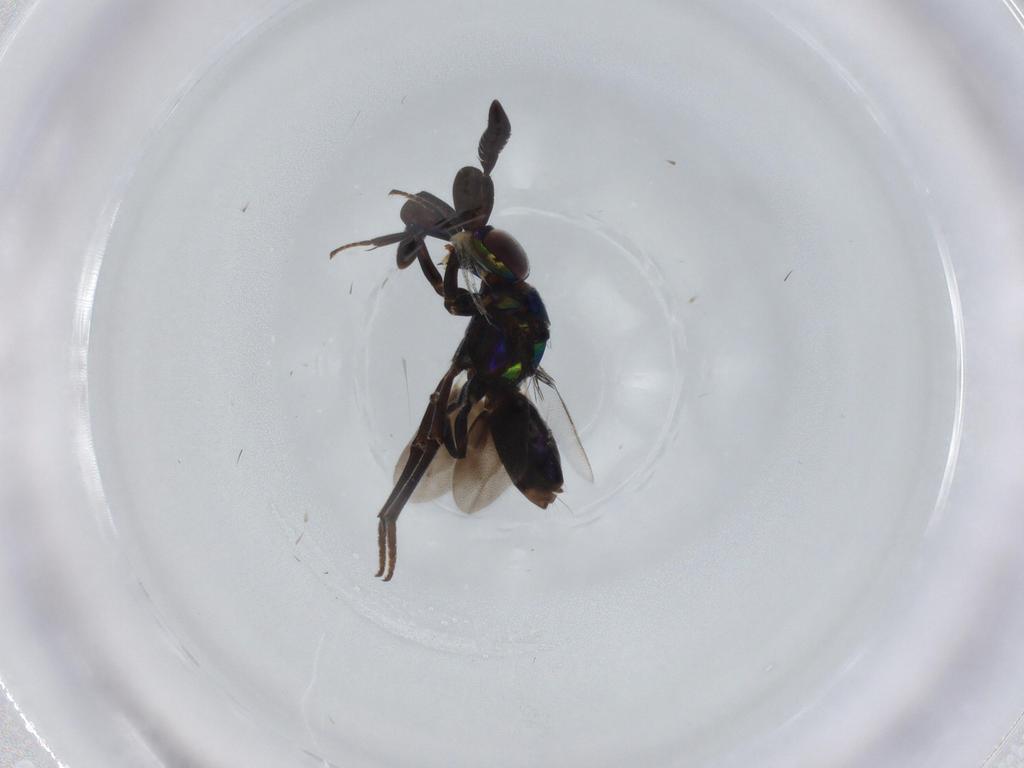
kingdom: Animalia
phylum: Arthropoda
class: Insecta
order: Hymenoptera
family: Encyrtidae
